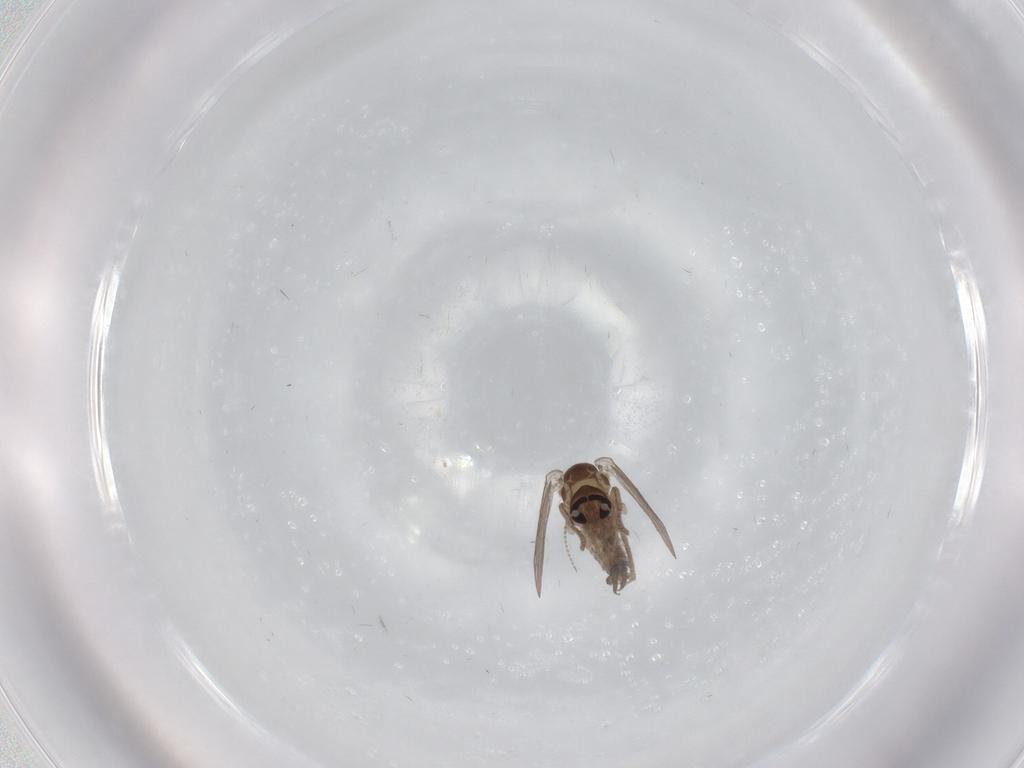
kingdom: Animalia
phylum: Arthropoda
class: Insecta
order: Diptera
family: Psychodidae
